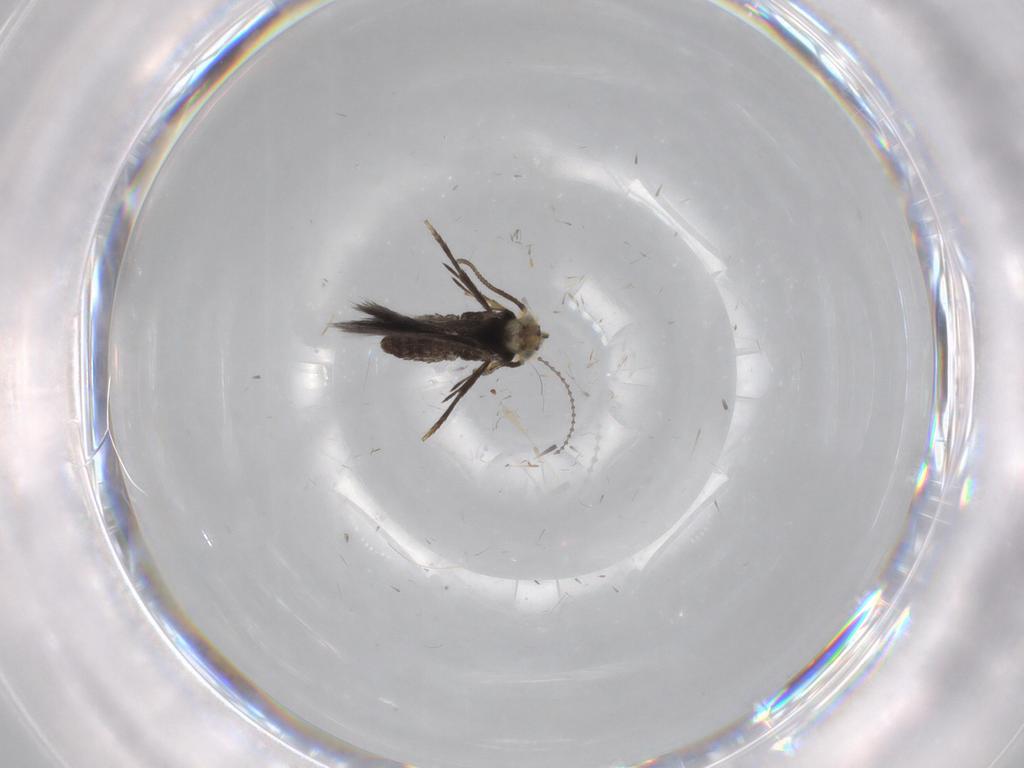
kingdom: Animalia
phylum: Arthropoda
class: Insecta
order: Lepidoptera
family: Nepticulidae
